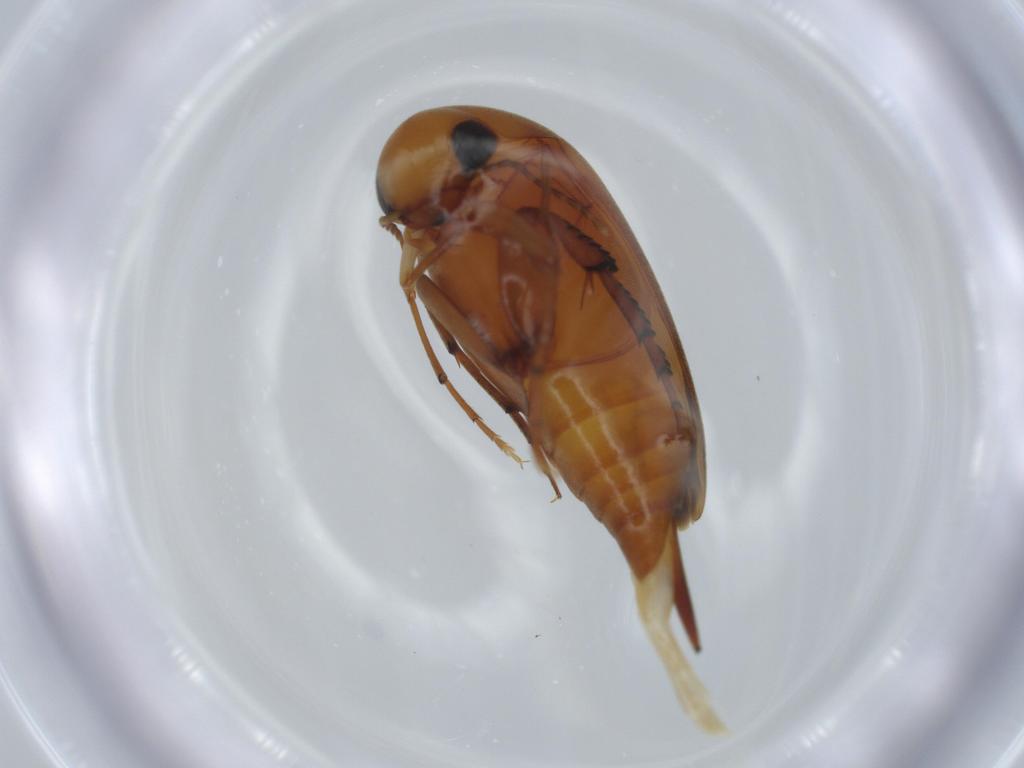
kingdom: Animalia
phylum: Arthropoda
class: Insecta
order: Coleoptera
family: Mordellidae
